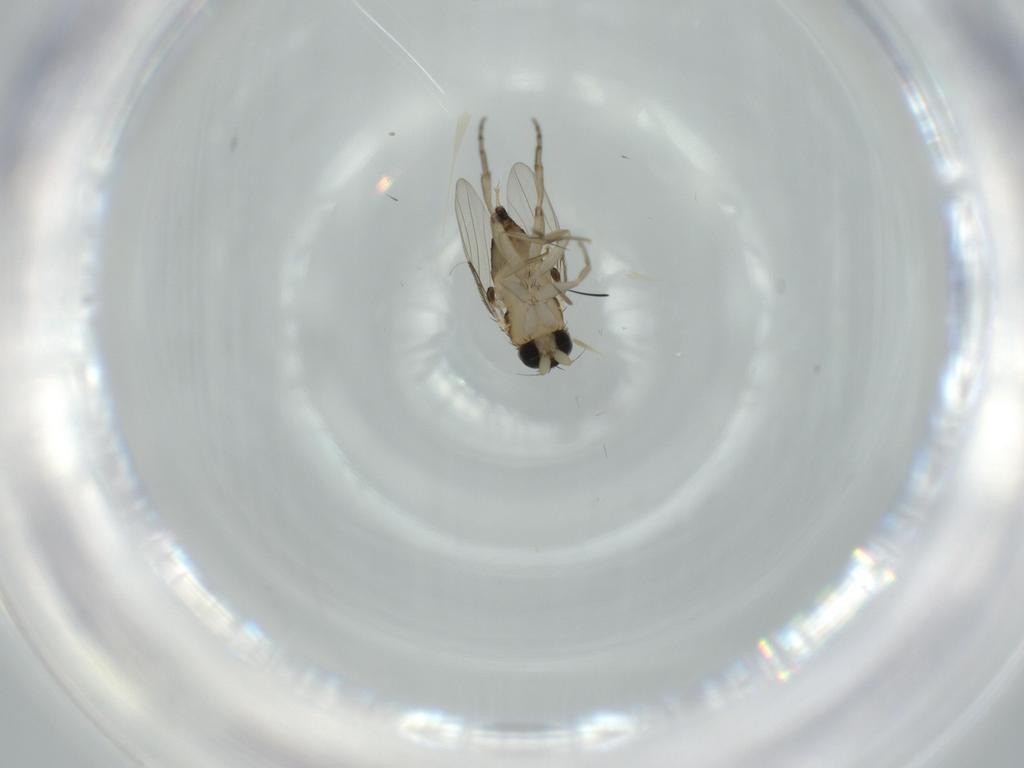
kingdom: Animalia
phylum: Arthropoda
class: Insecta
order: Diptera
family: Phoridae
